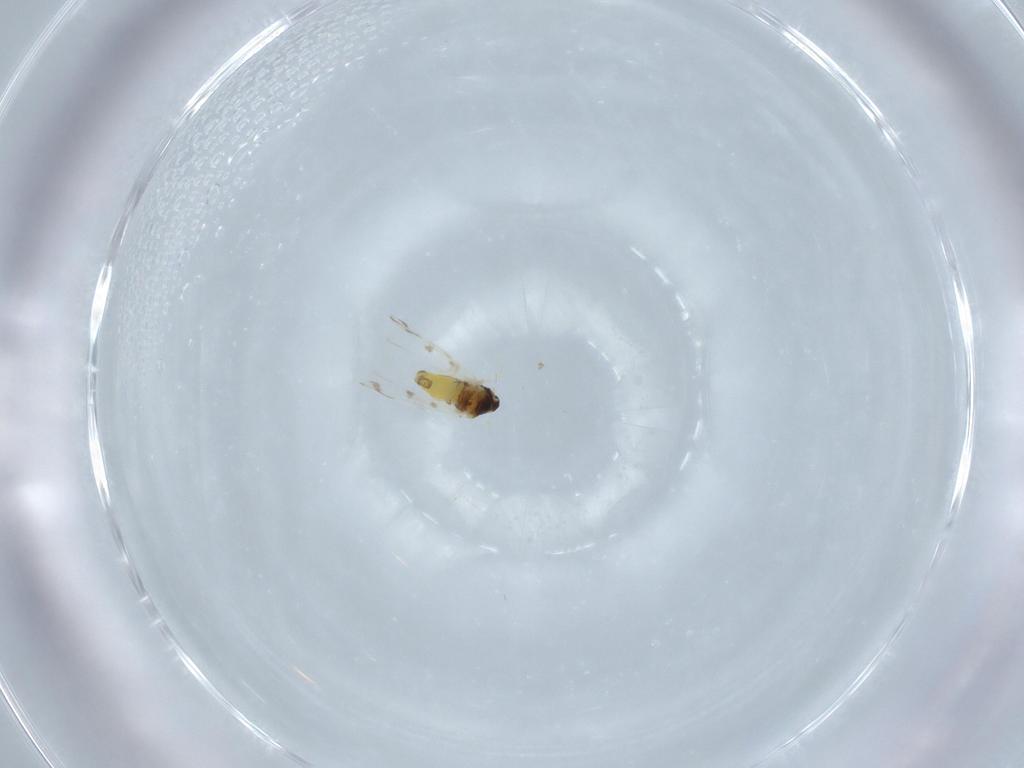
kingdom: Animalia
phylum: Arthropoda
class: Insecta
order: Hemiptera
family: Aleyrodidae
